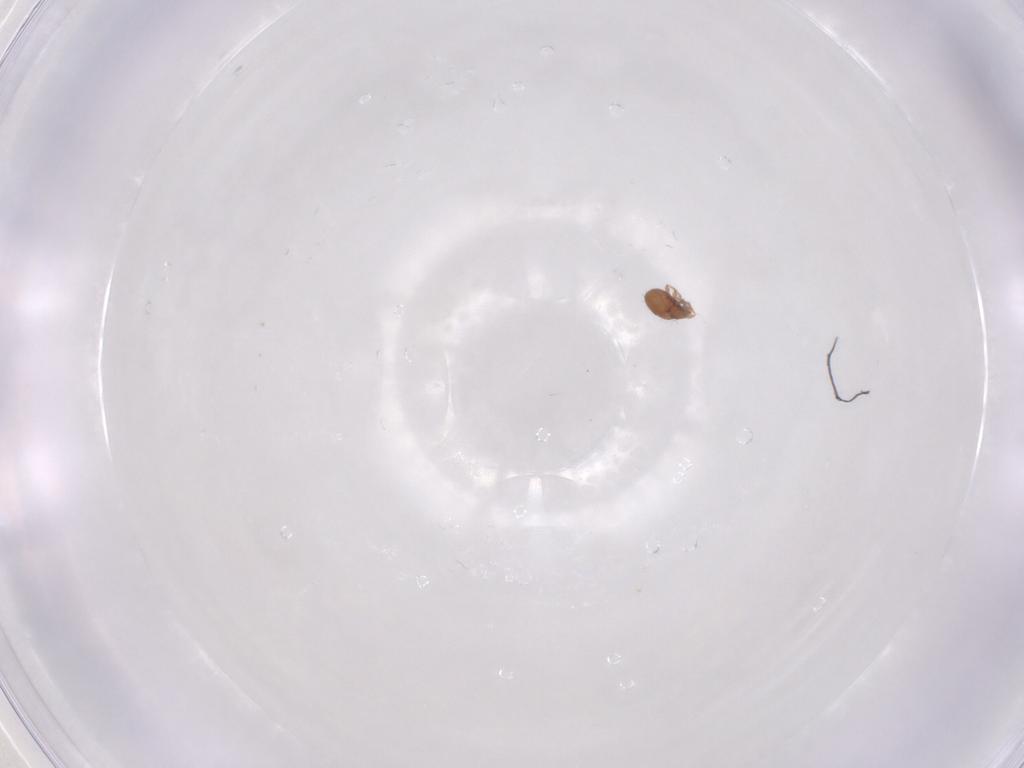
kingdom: Animalia
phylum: Arthropoda
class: Arachnida
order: Sarcoptiformes
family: Oribatulidae
